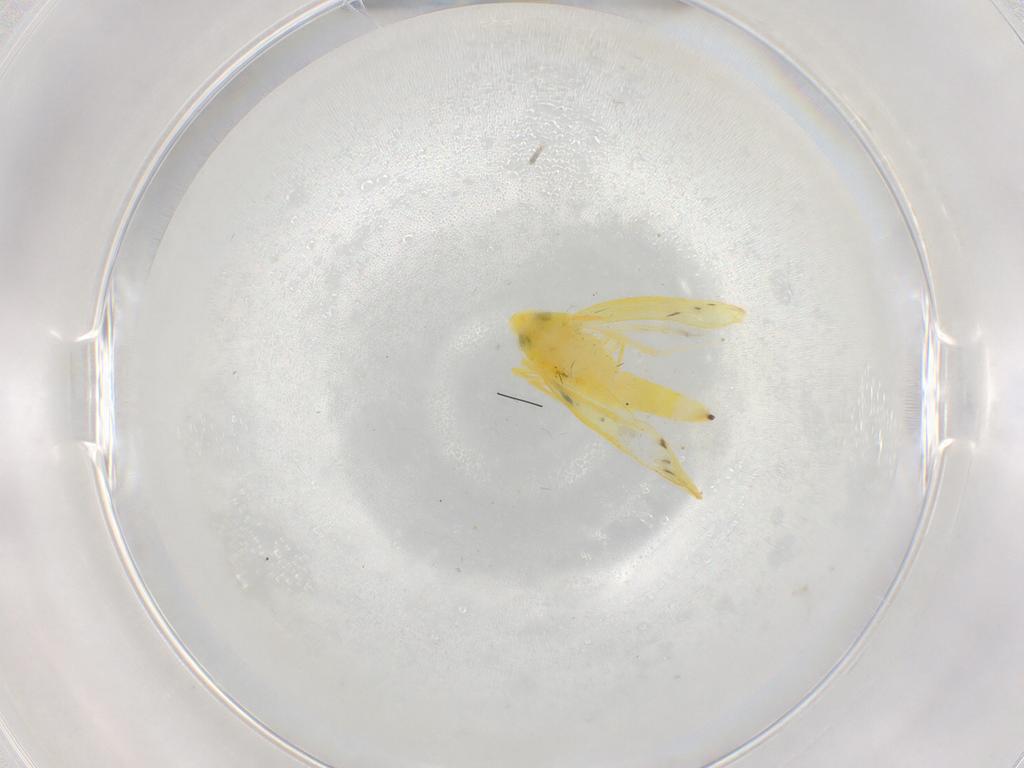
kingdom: Animalia
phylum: Arthropoda
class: Insecta
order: Hemiptera
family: Cicadellidae
